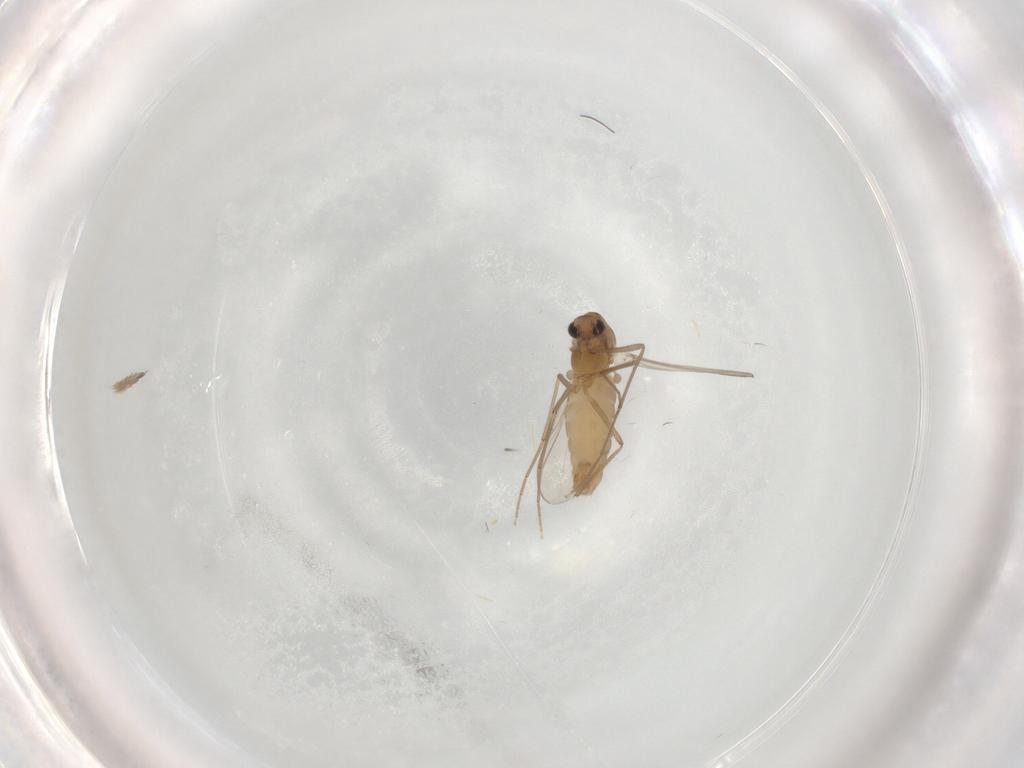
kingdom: Animalia
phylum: Arthropoda
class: Insecta
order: Diptera
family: Chironomidae
